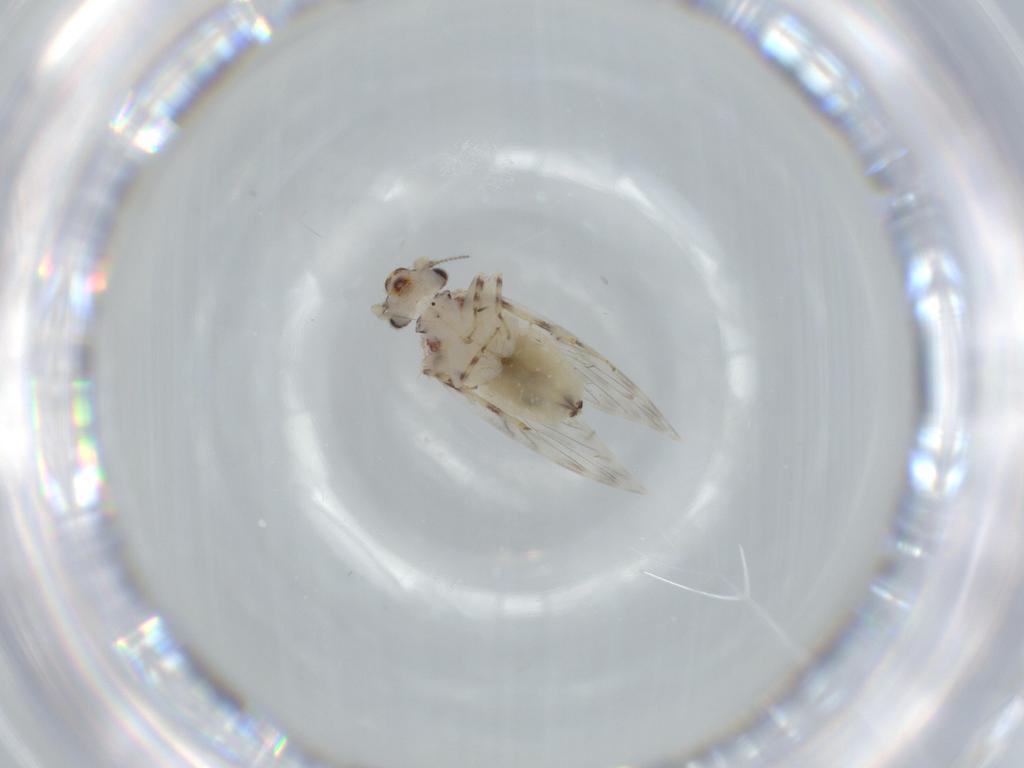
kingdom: Animalia
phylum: Arthropoda
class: Insecta
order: Psocodea
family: Lepidopsocidae
